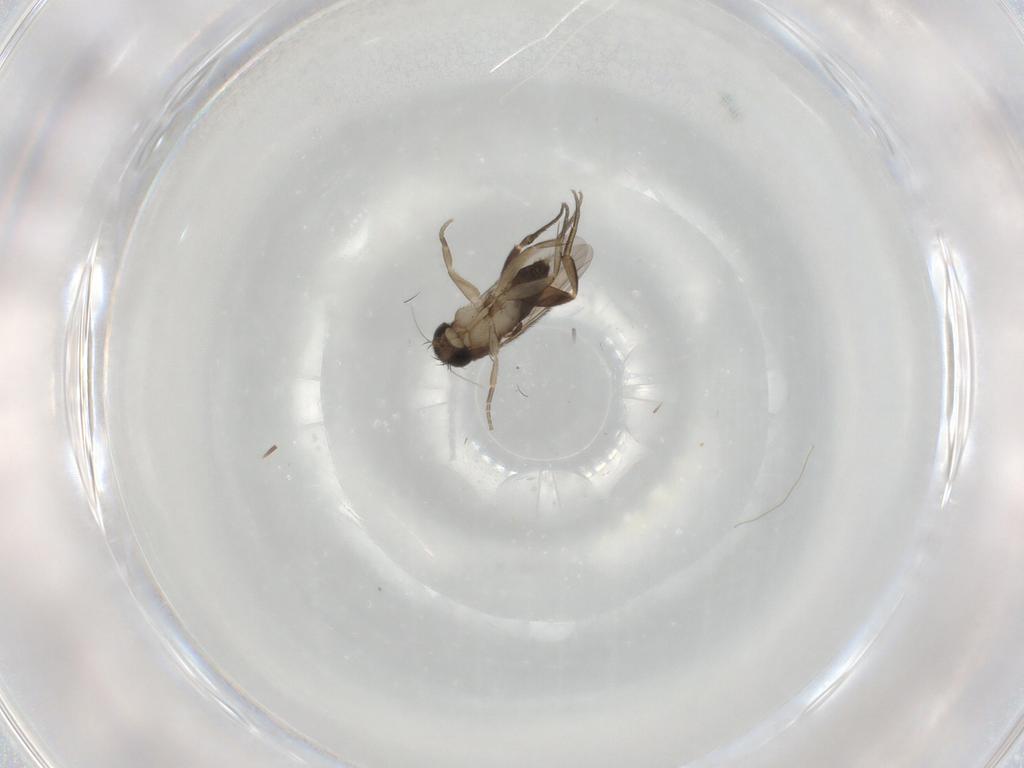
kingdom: Animalia
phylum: Arthropoda
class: Insecta
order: Diptera
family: Phoridae
